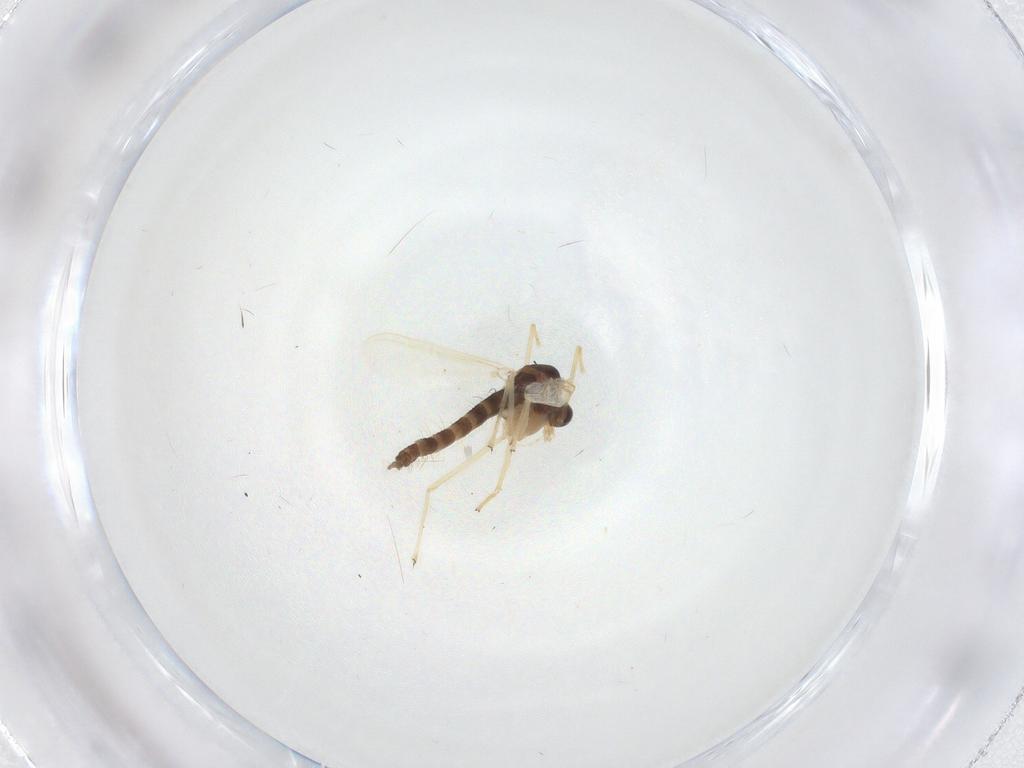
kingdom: Animalia
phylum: Arthropoda
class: Insecta
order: Diptera
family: Chironomidae
